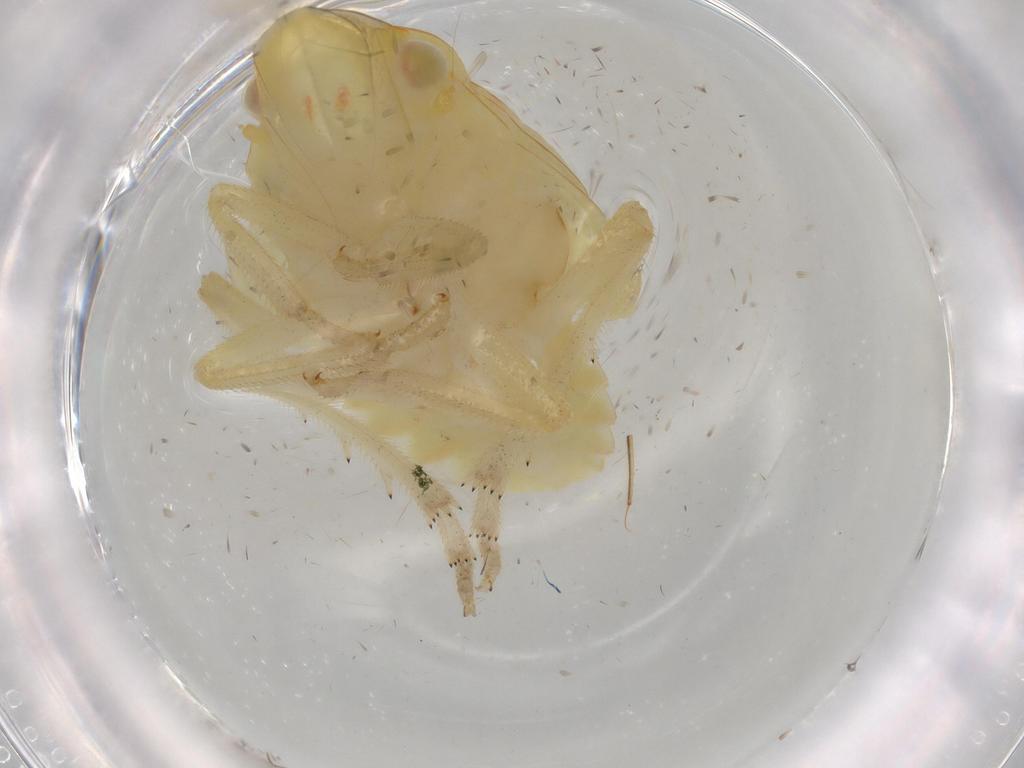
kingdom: Animalia
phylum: Arthropoda
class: Insecta
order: Hemiptera
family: Tropiduchidae
